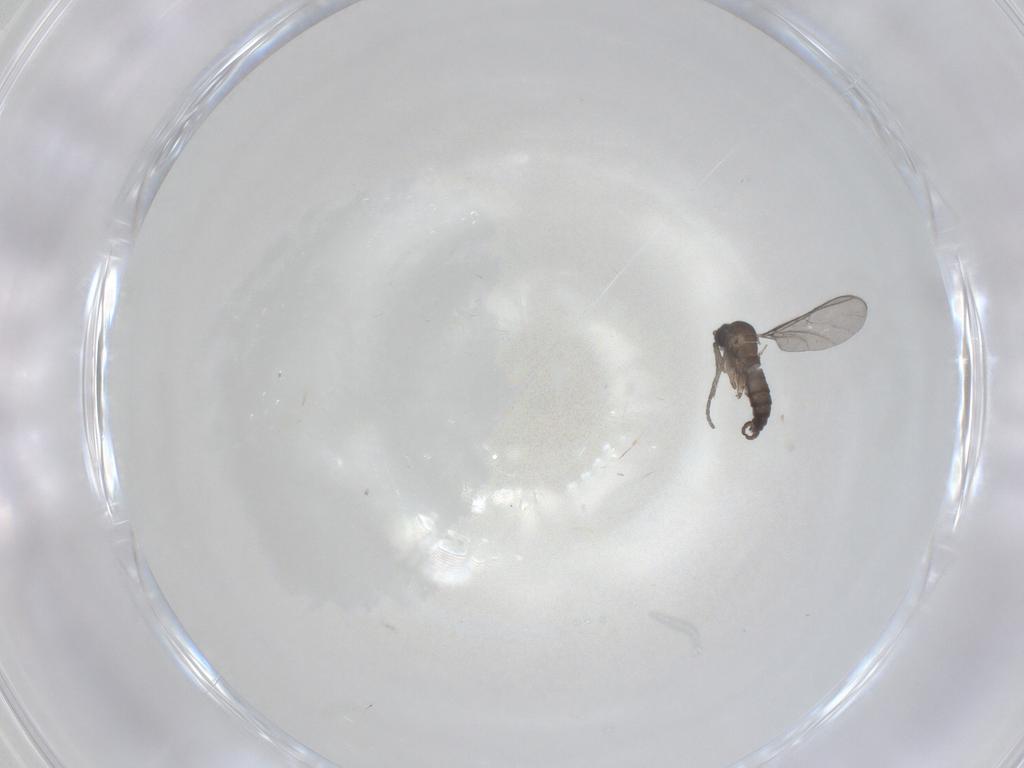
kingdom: Animalia
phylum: Arthropoda
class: Insecta
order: Diptera
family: Sciaridae
